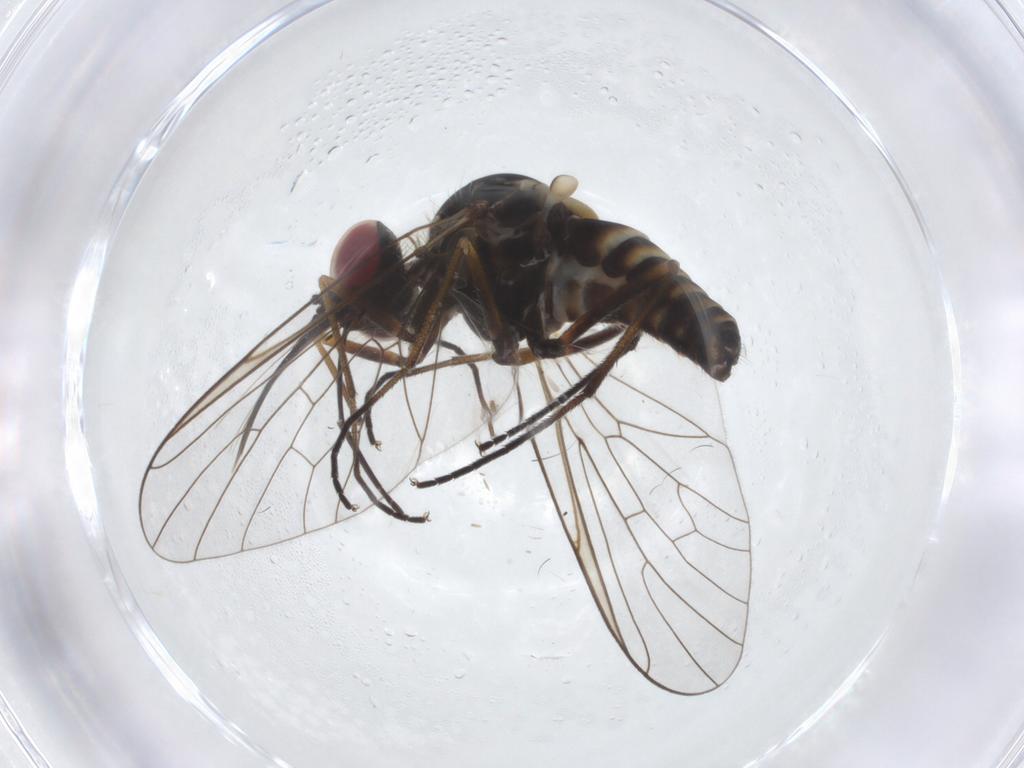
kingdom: Animalia
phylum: Arthropoda
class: Insecta
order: Diptera
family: Bombyliidae
